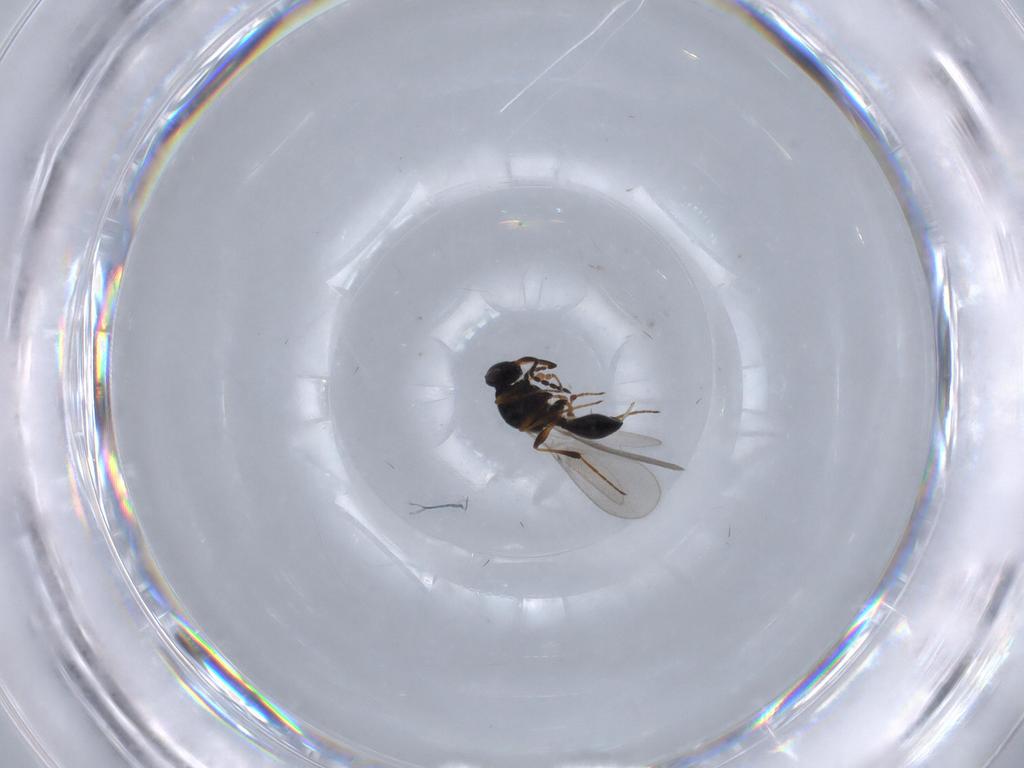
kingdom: Animalia
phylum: Arthropoda
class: Insecta
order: Hymenoptera
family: Platygastridae
